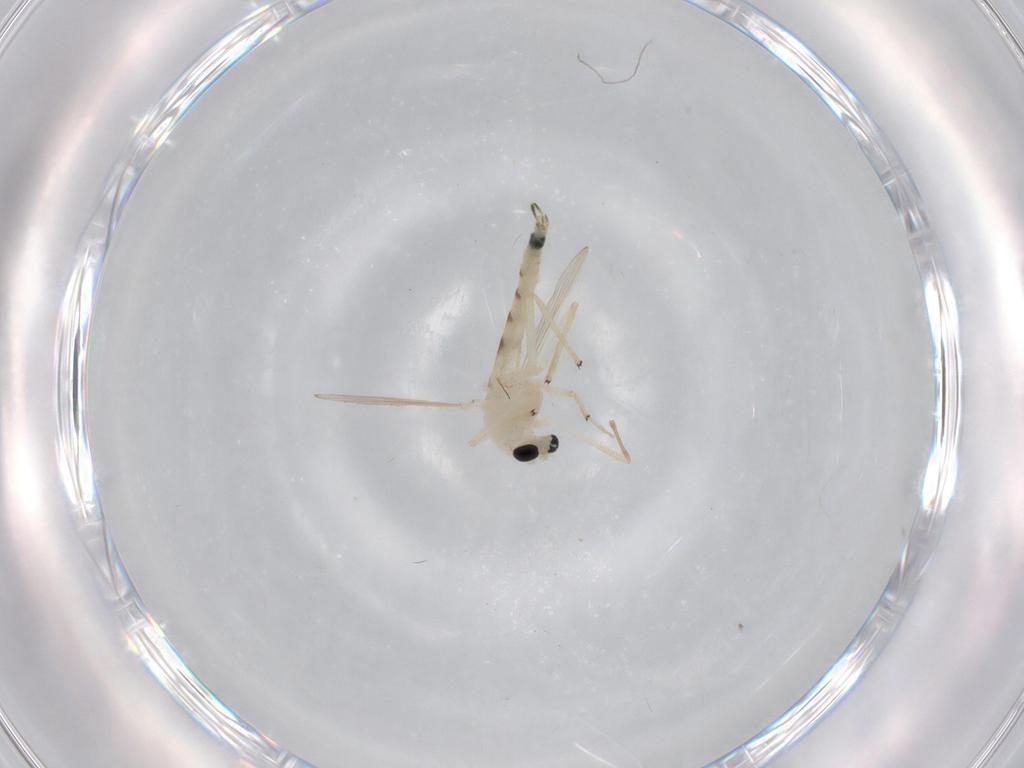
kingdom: Animalia
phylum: Arthropoda
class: Insecta
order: Diptera
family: Chironomidae
